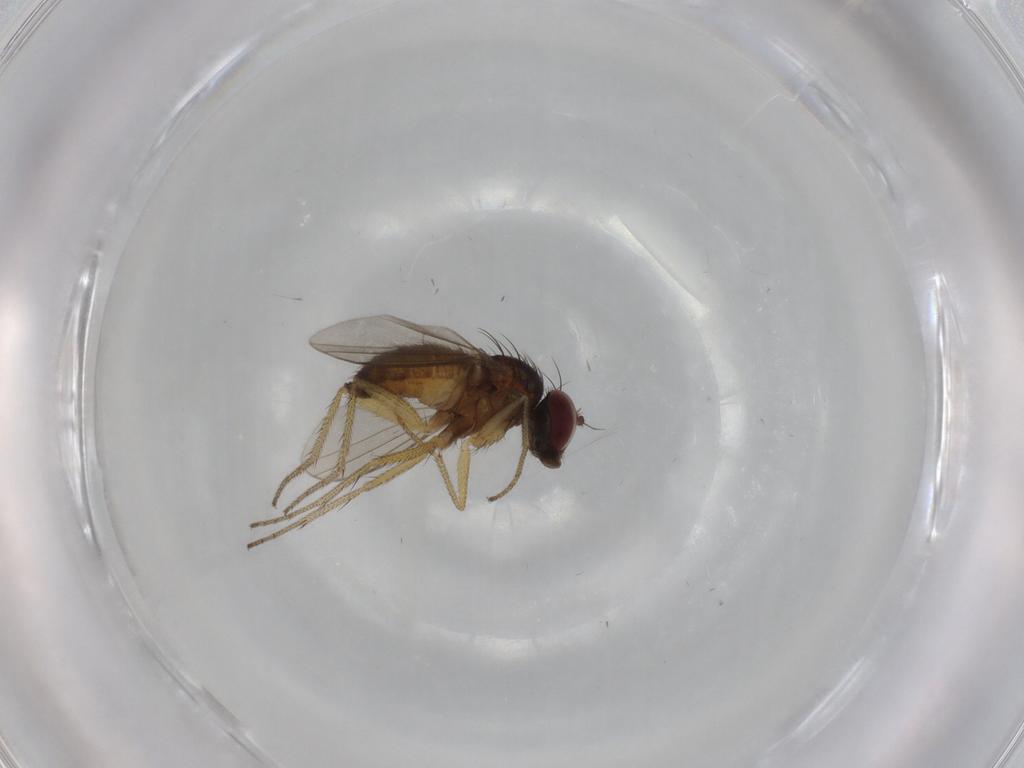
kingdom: Animalia
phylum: Arthropoda
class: Insecta
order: Diptera
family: Dolichopodidae
